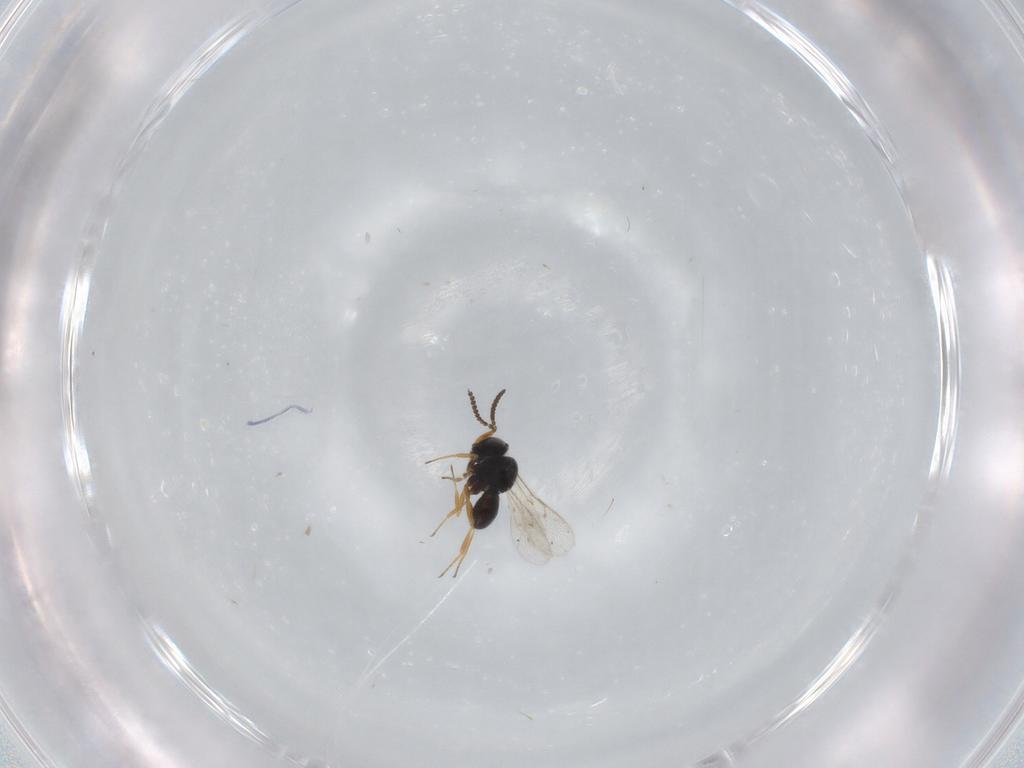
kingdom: Animalia
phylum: Arthropoda
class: Insecta
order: Hymenoptera
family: Scelionidae
